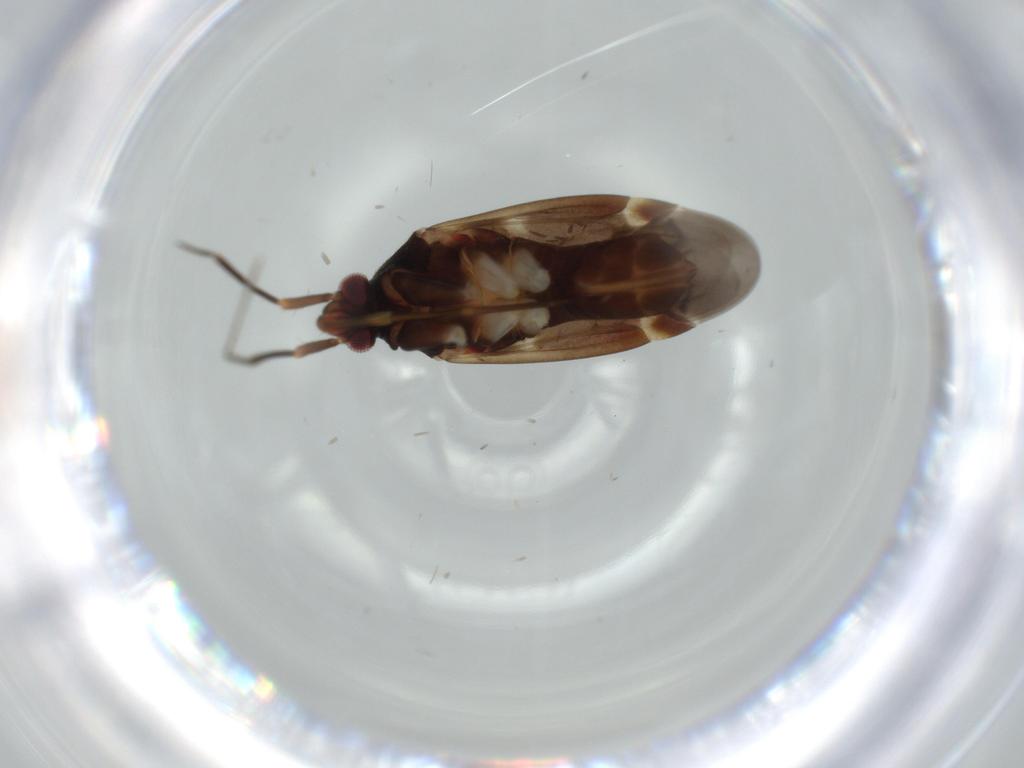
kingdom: Animalia
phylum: Arthropoda
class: Insecta
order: Hemiptera
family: Miridae
